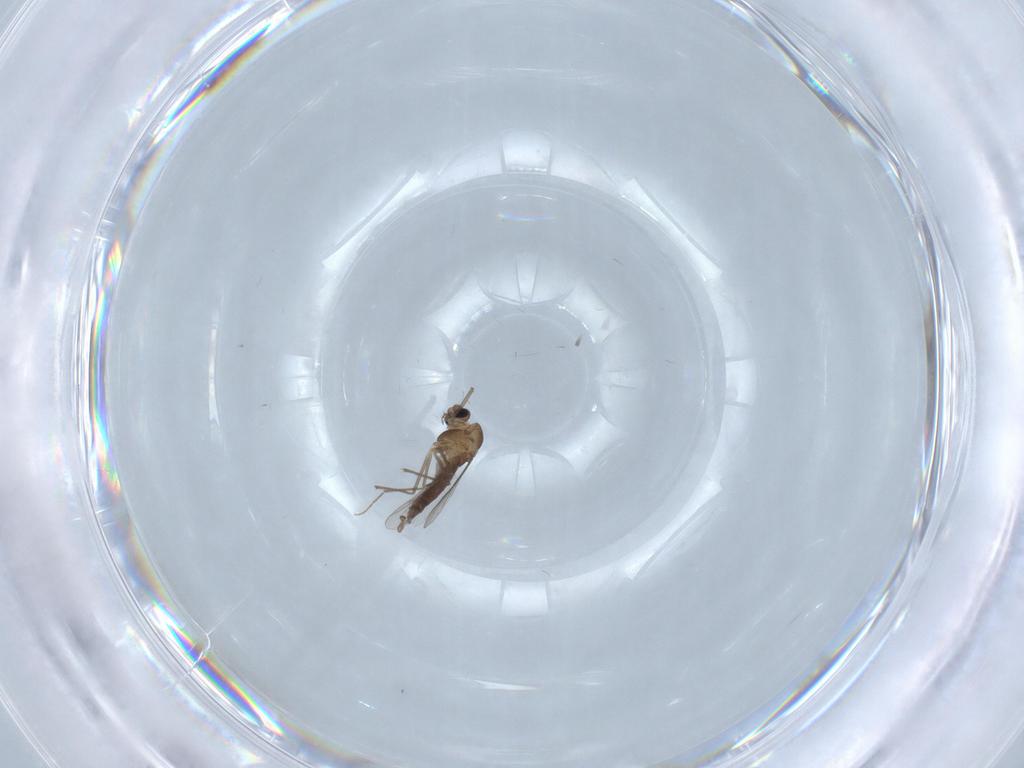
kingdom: Animalia
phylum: Arthropoda
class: Insecta
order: Diptera
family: Chironomidae
